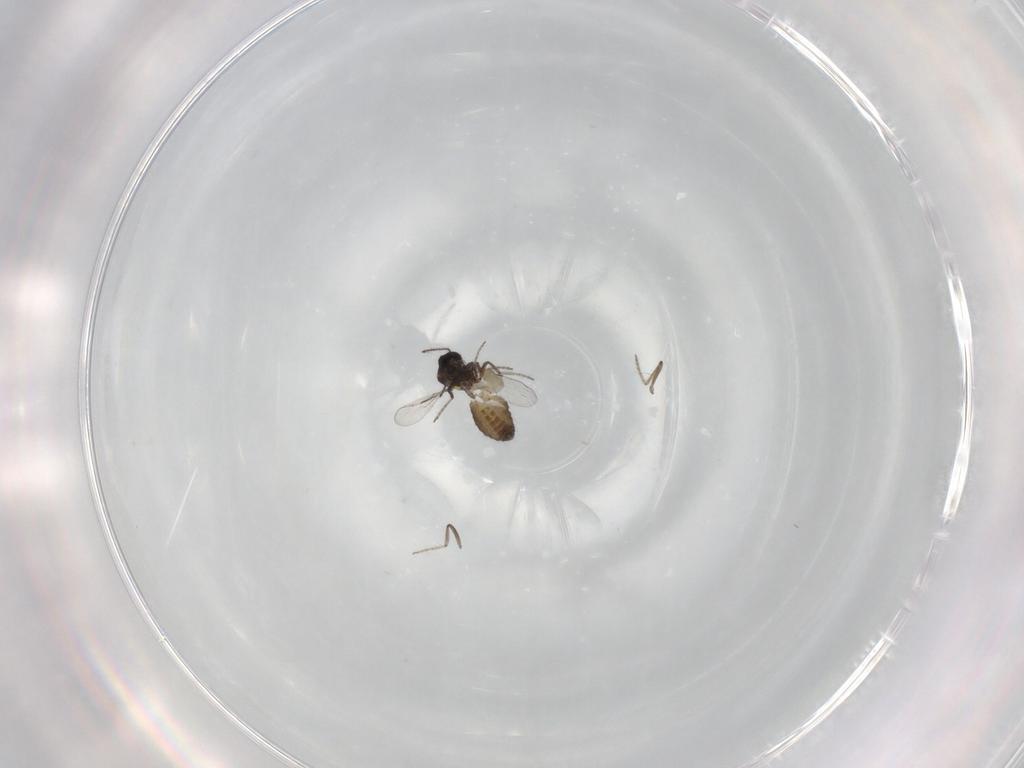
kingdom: Animalia
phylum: Arthropoda
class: Insecta
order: Diptera
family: Ceratopogonidae
